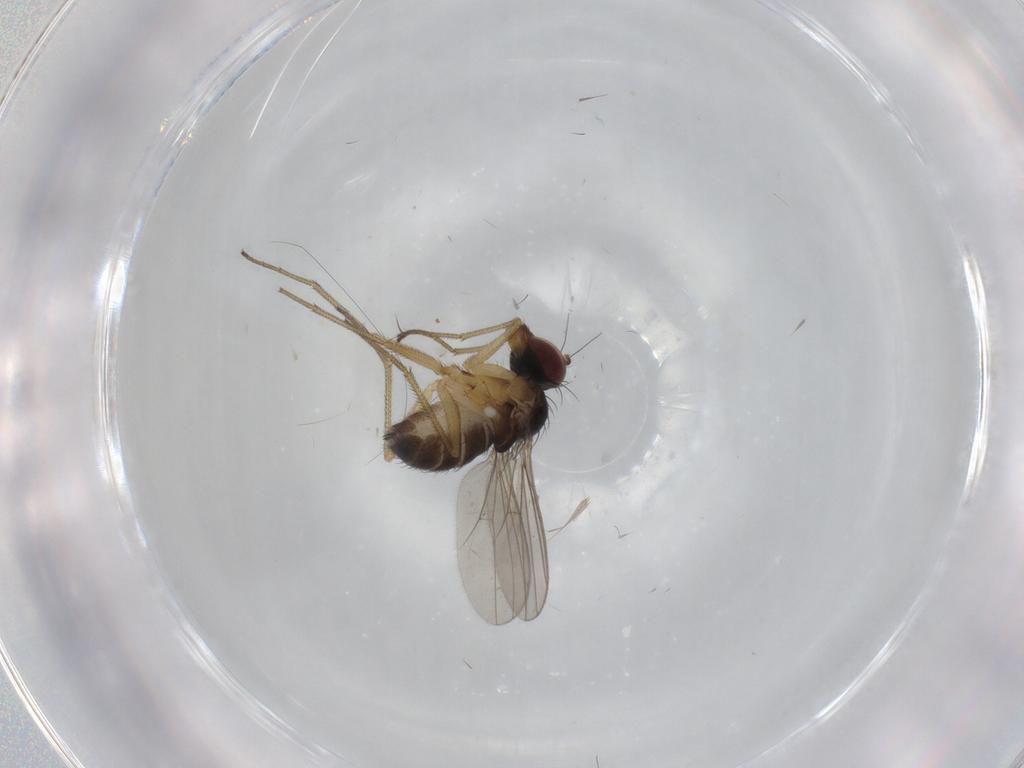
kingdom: Animalia
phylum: Arthropoda
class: Insecta
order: Diptera
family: Dolichopodidae
